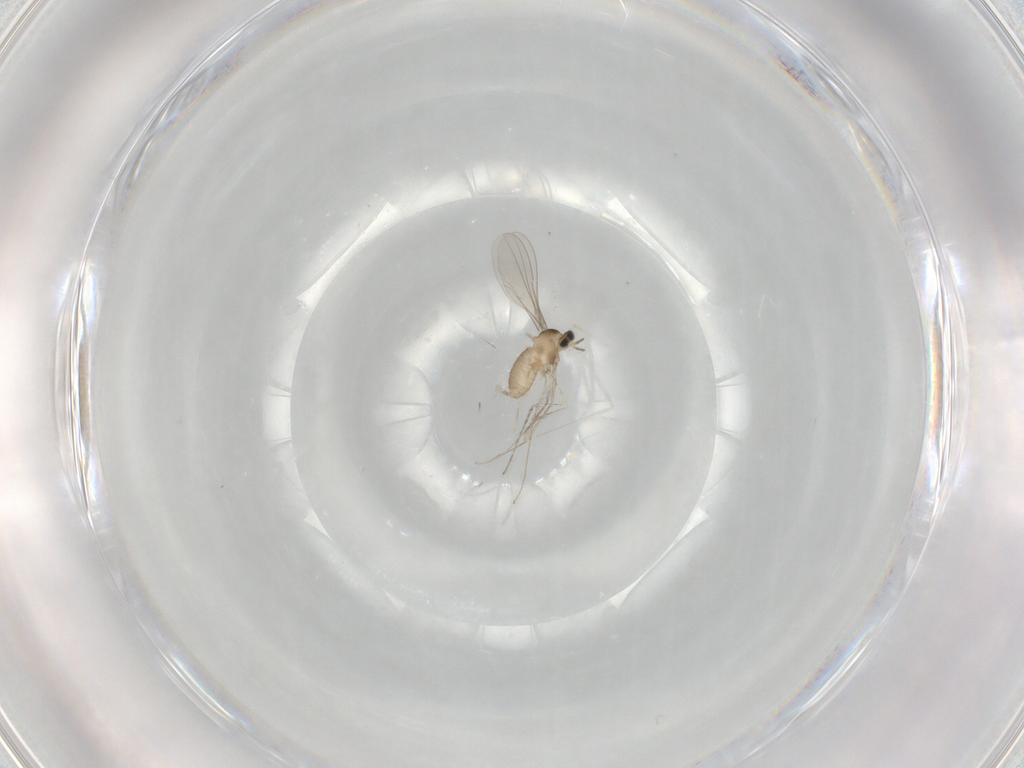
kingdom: Animalia
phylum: Arthropoda
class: Insecta
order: Diptera
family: Cecidomyiidae
